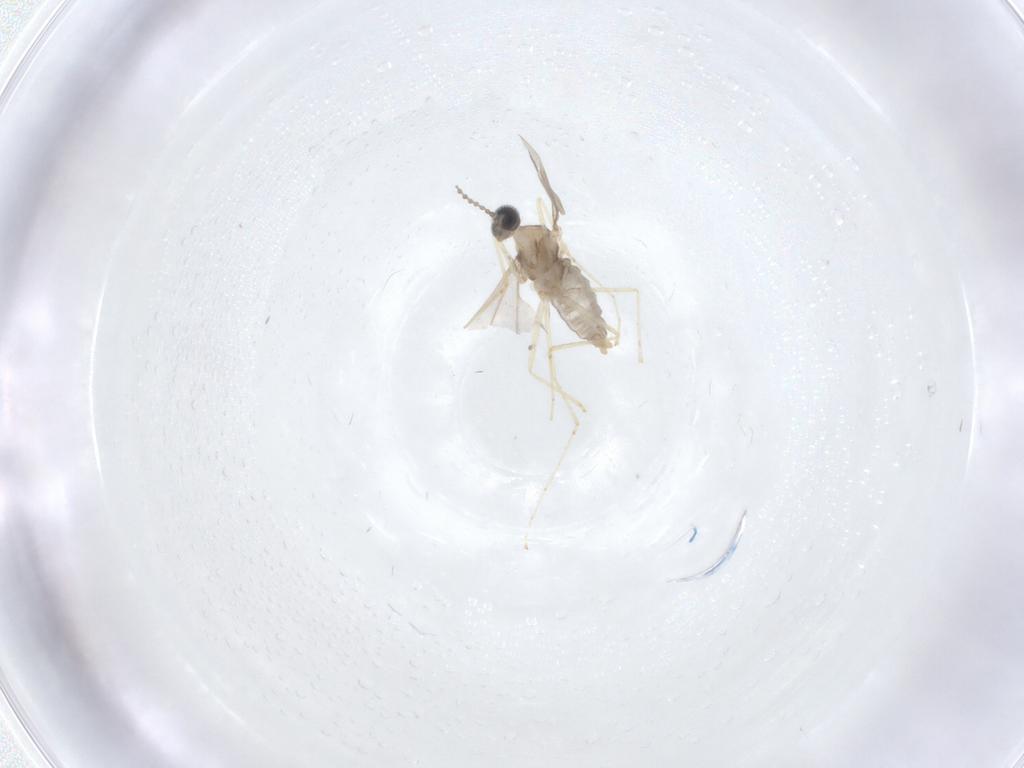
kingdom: Animalia
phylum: Arthropoda
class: Insecta
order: Diptera
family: Cecidomyiidae
